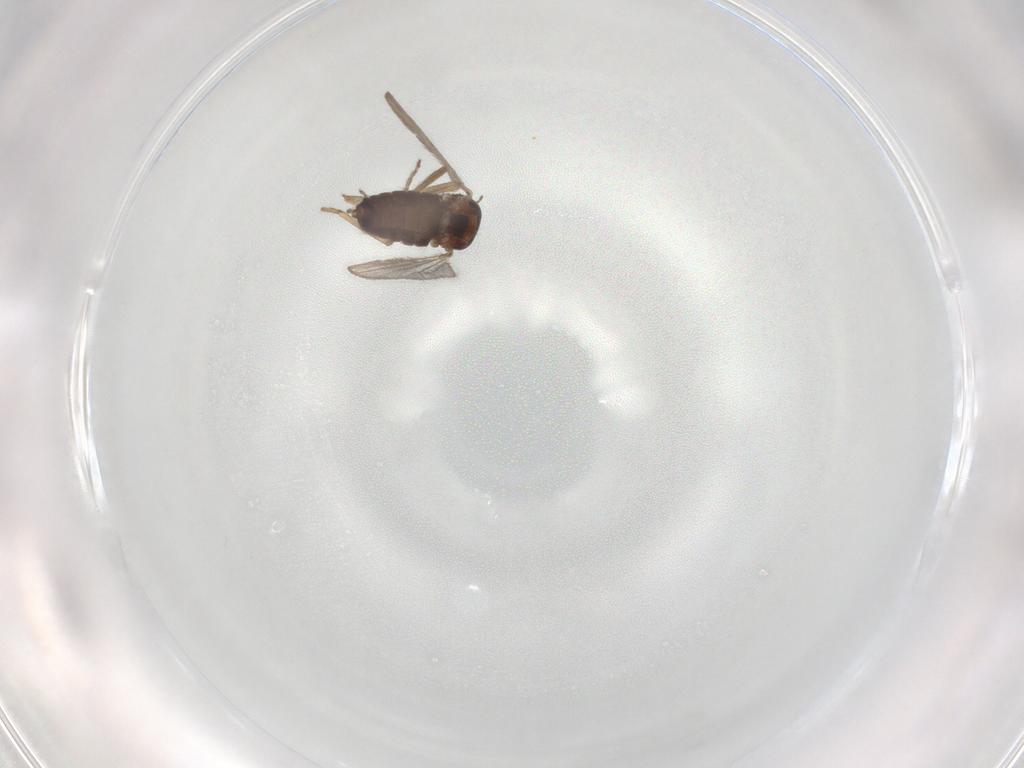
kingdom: Animalia
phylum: Arthropoda
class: Insecta
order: Diptera
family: Ceratopogonidae
